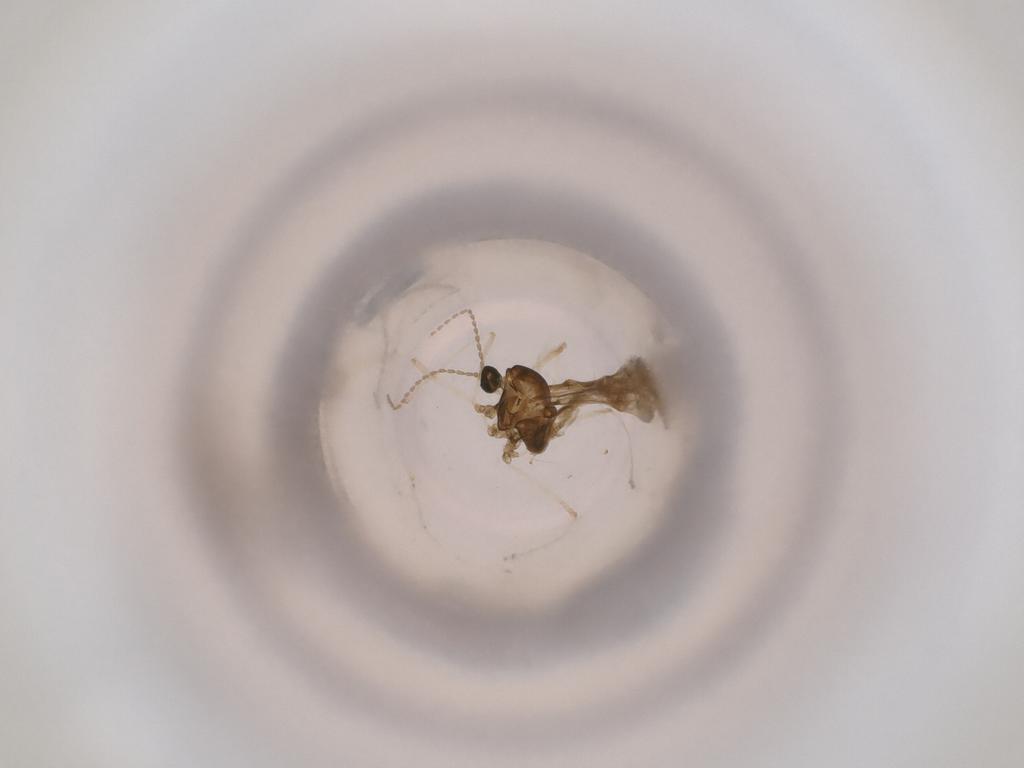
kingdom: Animalia
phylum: Arthropoda
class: Insecta
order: Diptera
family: Cecidomyiidae
